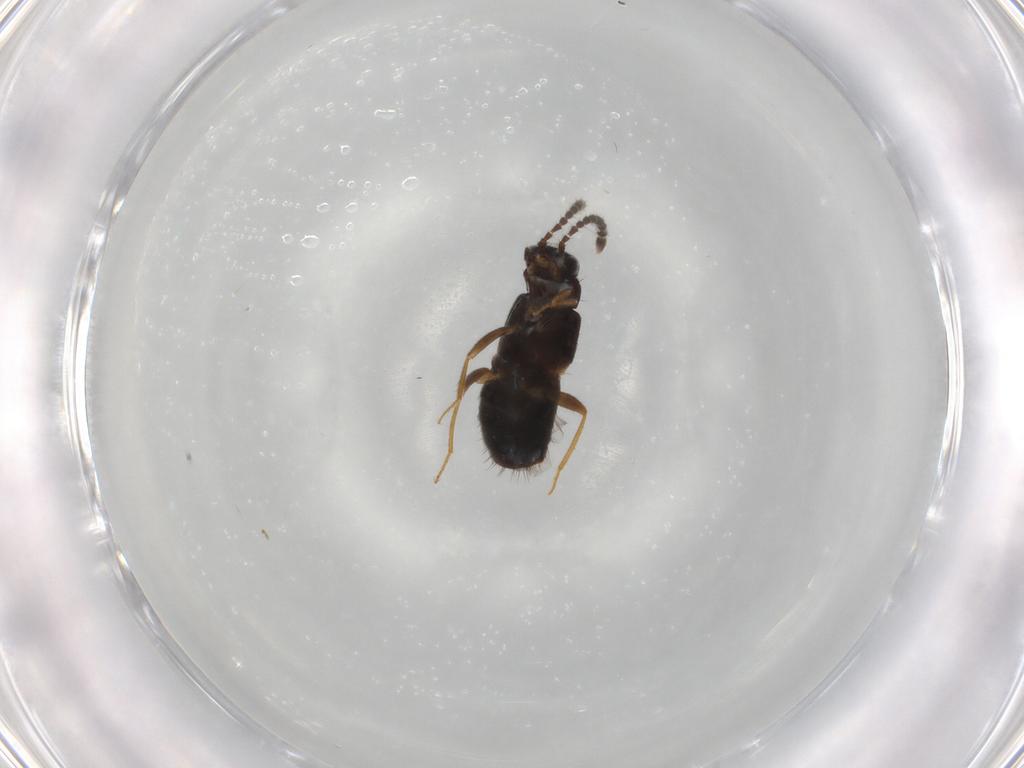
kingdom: Animalia
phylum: Arthropoda
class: Insecta
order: Coleoptera
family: Staphylinidae
